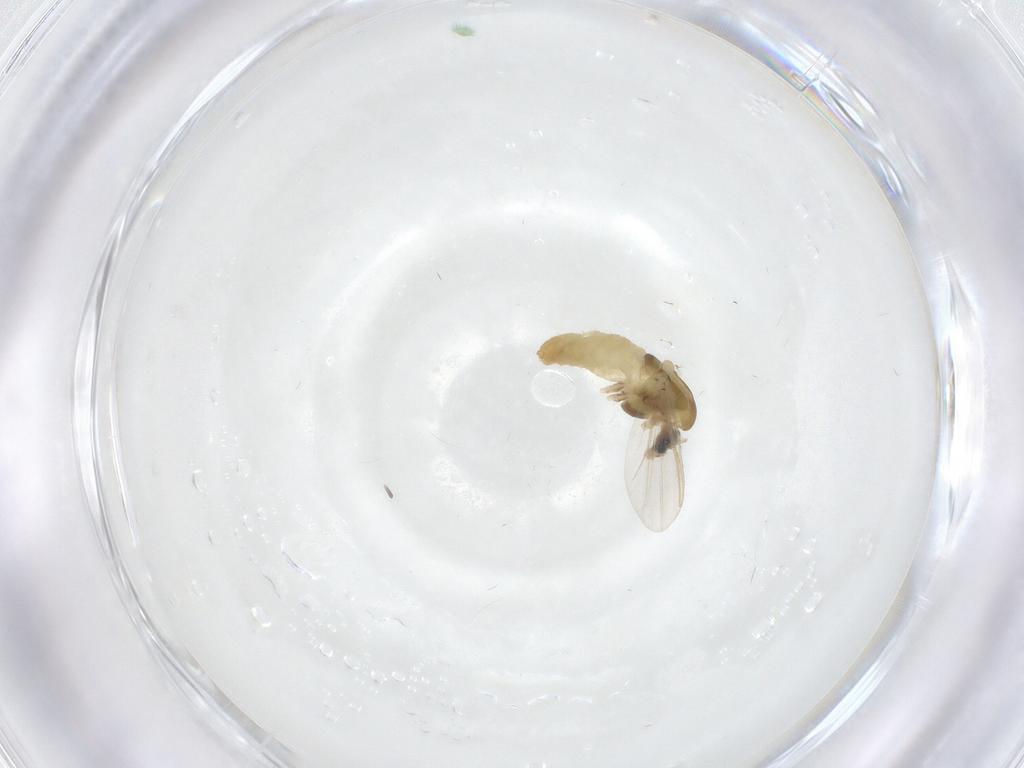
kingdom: Animalia
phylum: Arthropoda
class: Insecta
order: Diptera
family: Chironomidae
